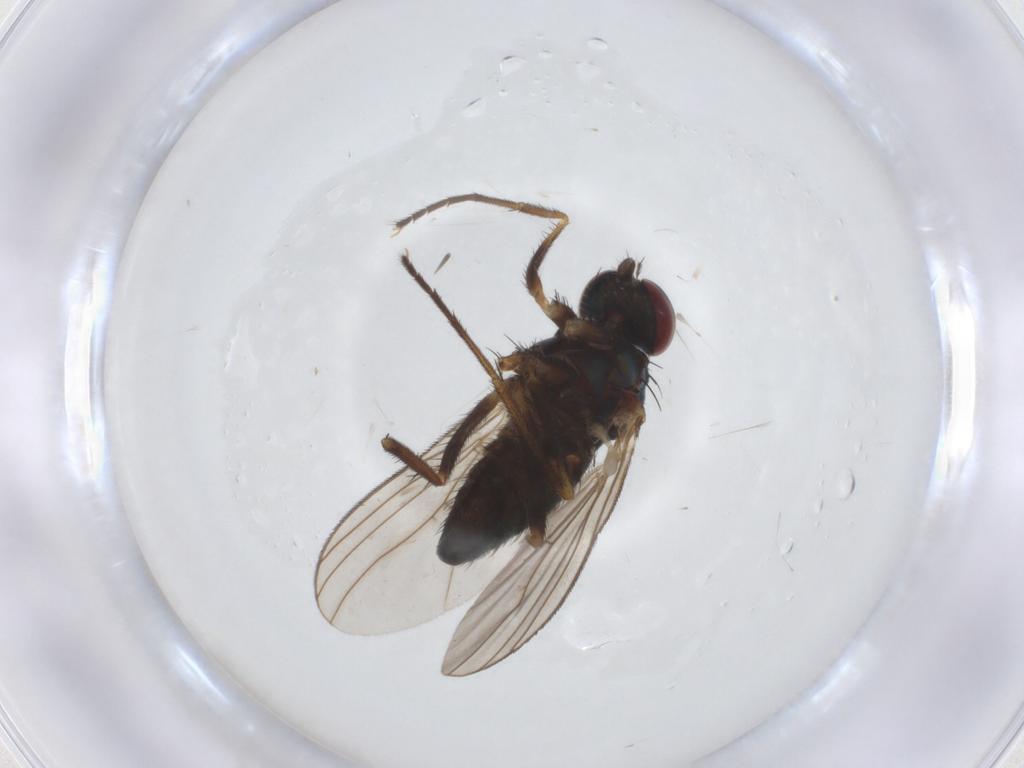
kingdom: Animalia
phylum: Arthropoda
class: Insecta
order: Diptera
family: Dolichopodidae
